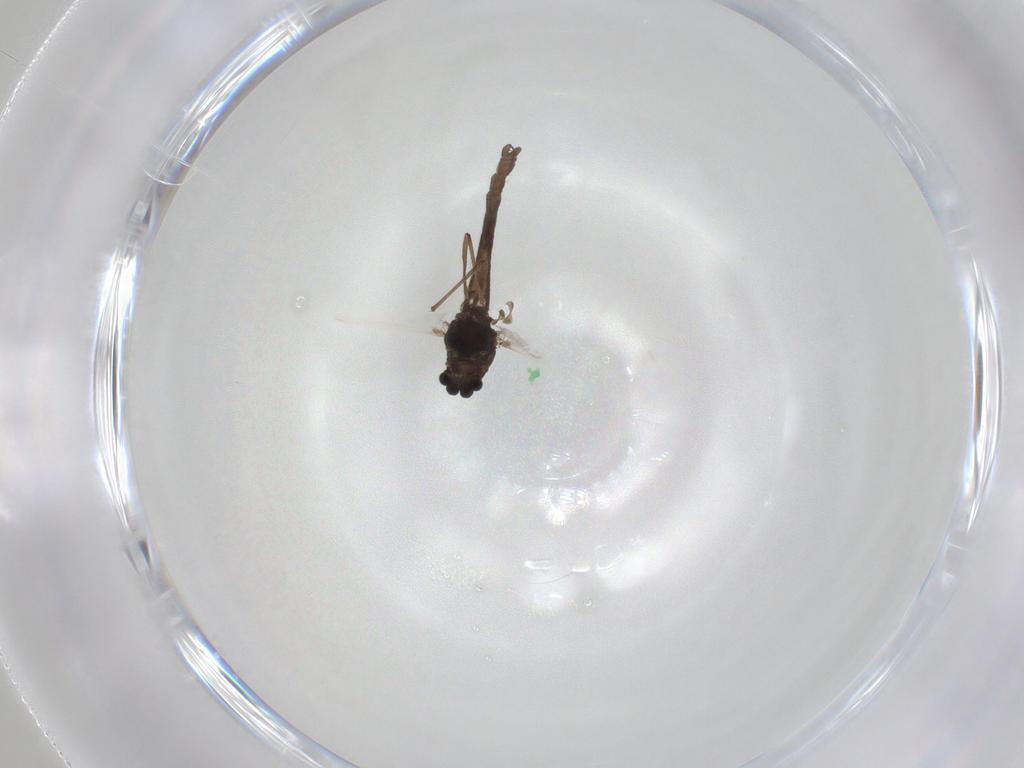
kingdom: Animalia
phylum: Arthropoda
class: Insecta
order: Diptera
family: Chironomidae
